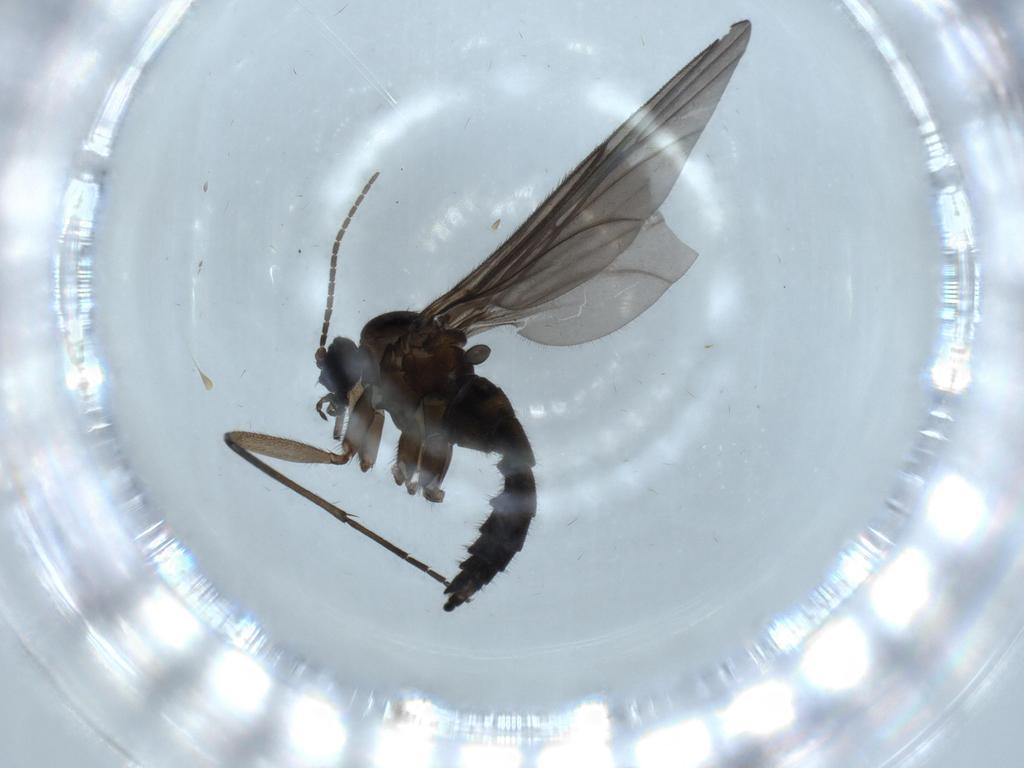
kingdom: Animalia
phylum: Arthropoda
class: Insecta
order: Diptera
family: Sciaridae
